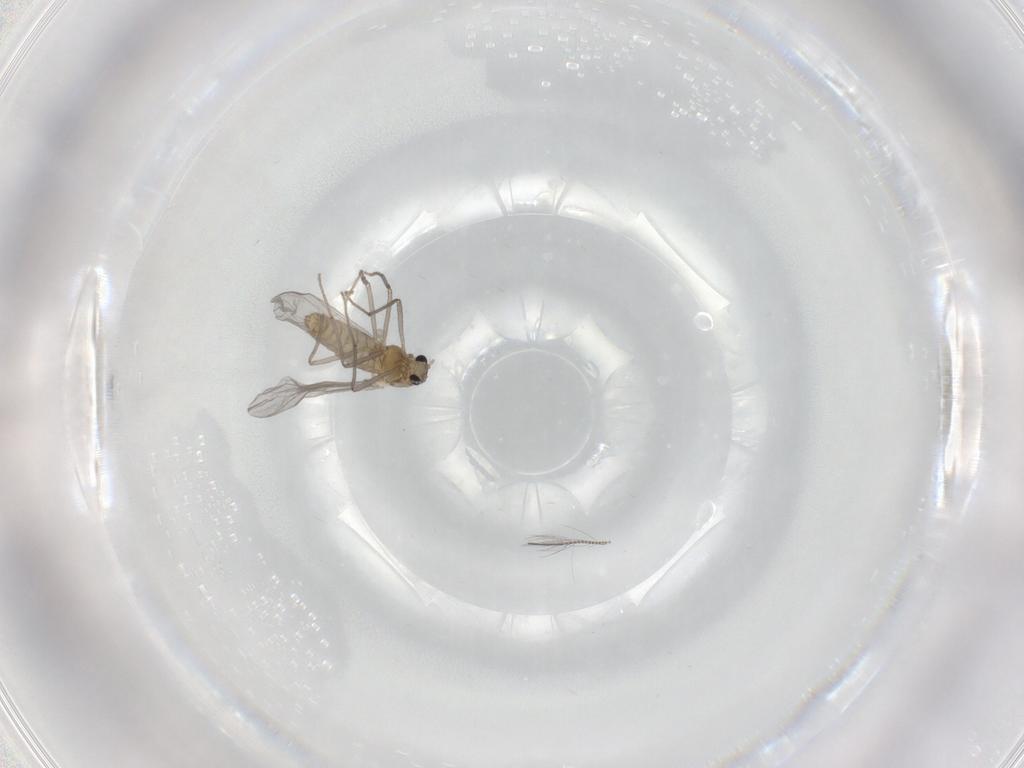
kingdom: Animalia
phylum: Arthropoda
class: Insecta
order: Diptera
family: Chironomidae
